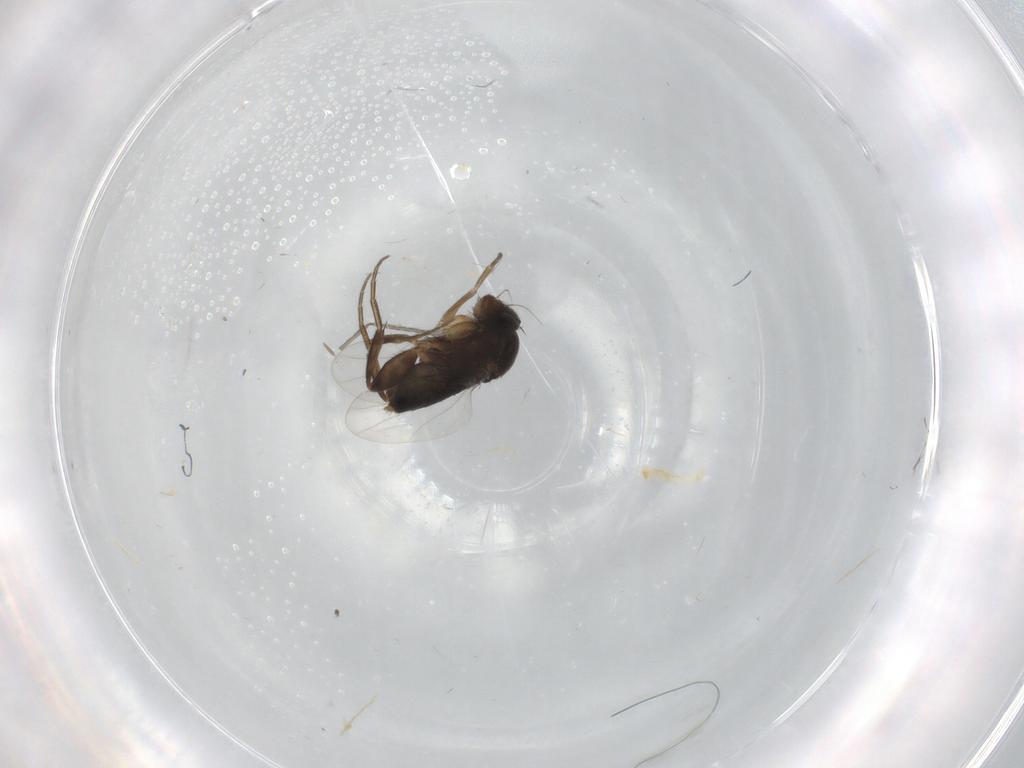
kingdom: Animalia
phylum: Arthropoda
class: Insecta
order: Diptera
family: Phoridae
